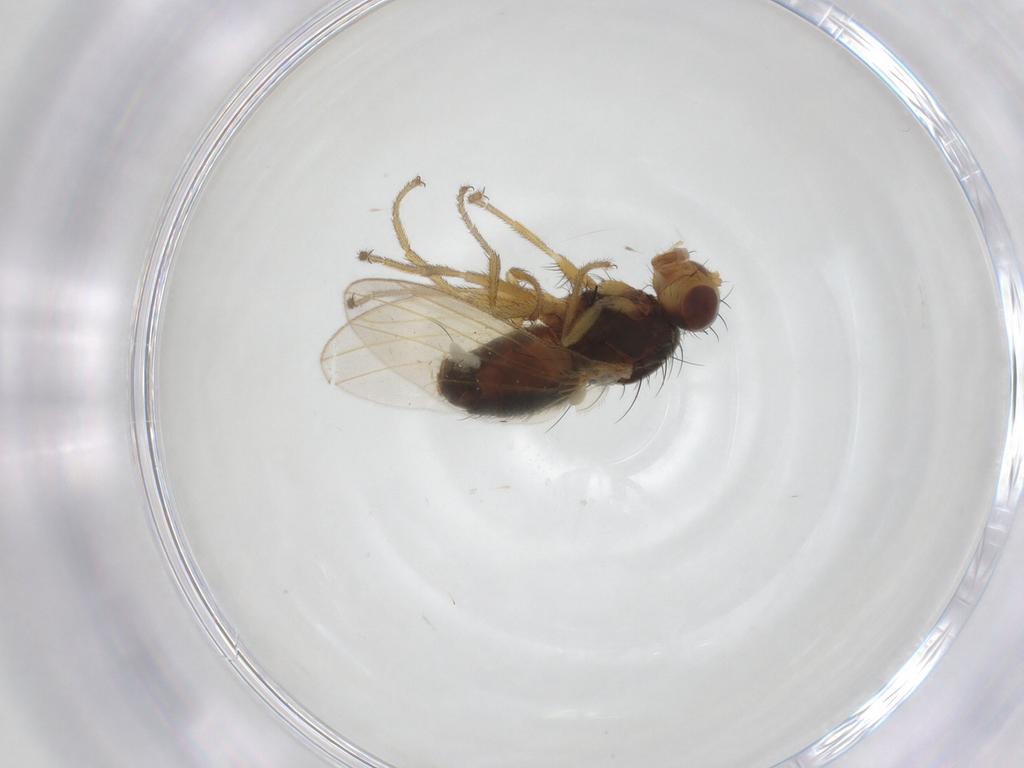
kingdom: Animalia
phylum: Arthropoda
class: Insecta
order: Diptera
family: Heleomyzidae
